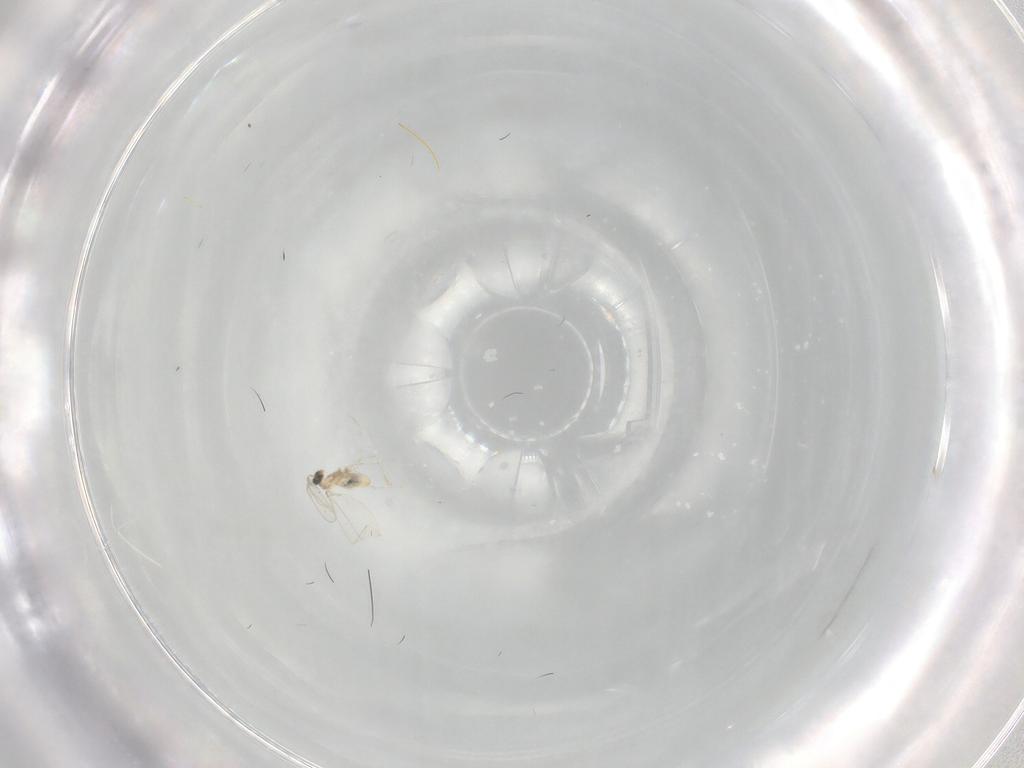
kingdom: Animalia
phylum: Arthropoda
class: Insecta
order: Diptera
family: Cecidomyiidae
